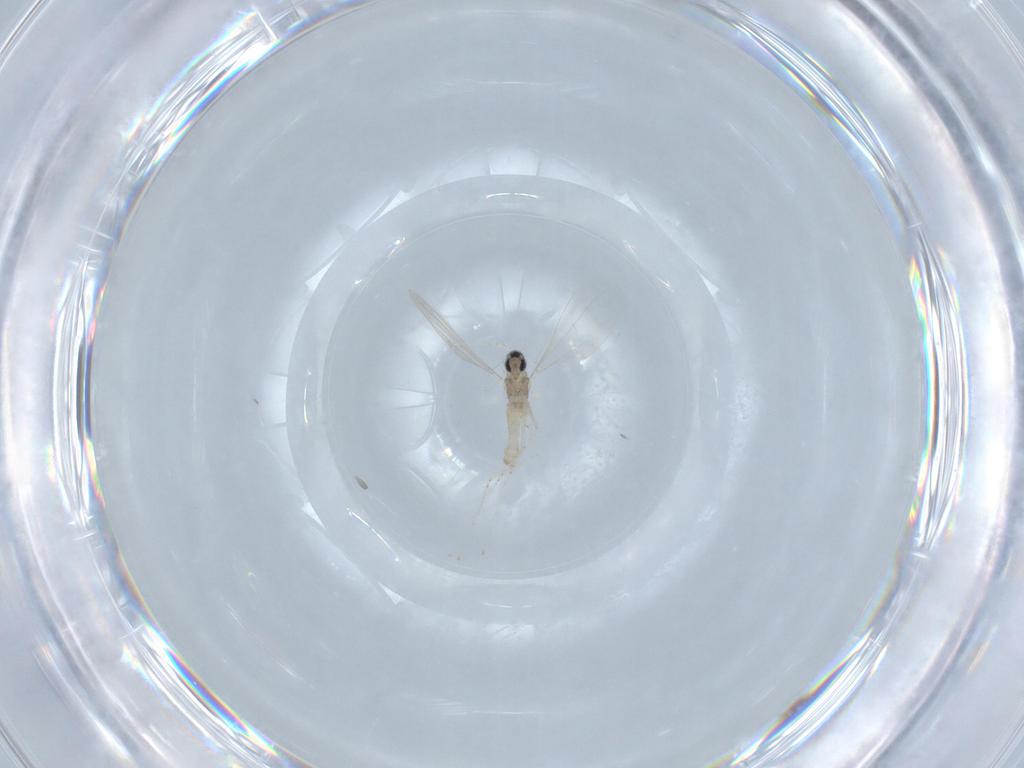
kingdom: Animalia
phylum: Arthropoda
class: Insecta
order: Diptera
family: Cecidomyiidae
